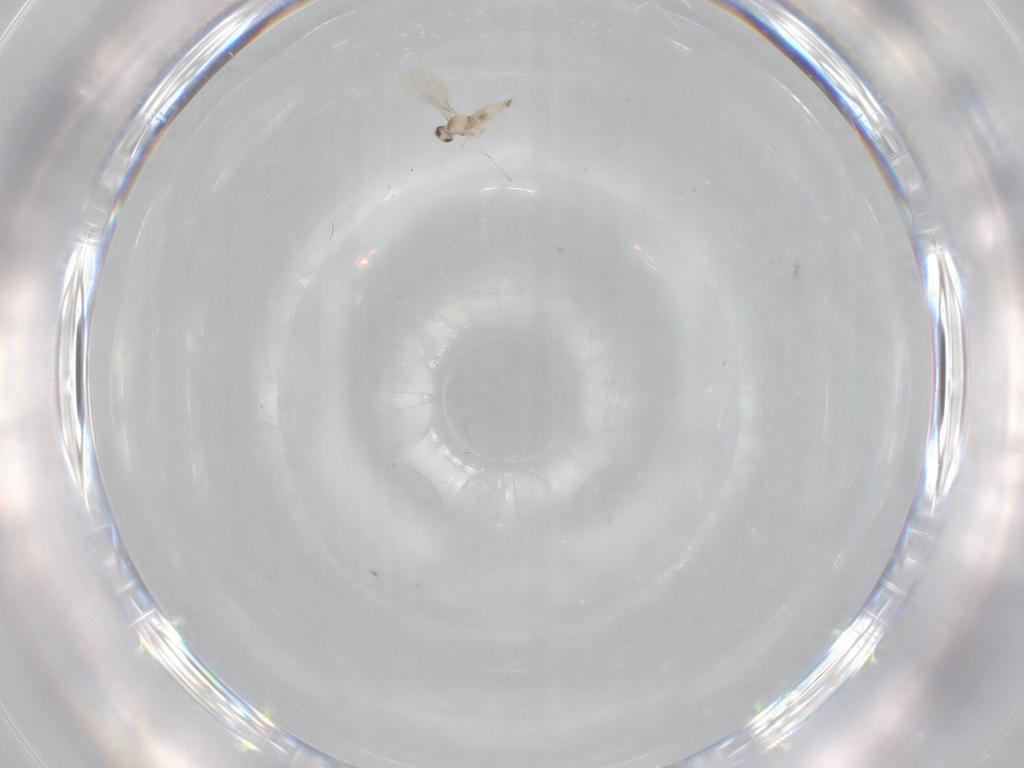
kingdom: Animalia
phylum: Arthropoda
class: Insecta
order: Diptera
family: Cecidomyiidae
